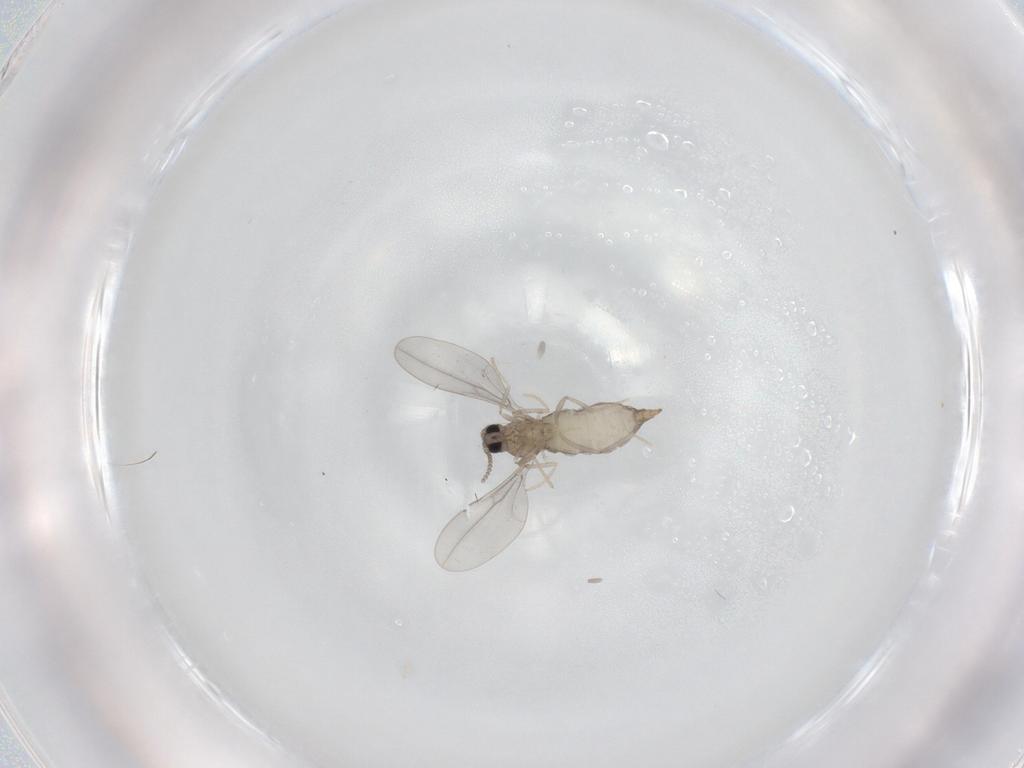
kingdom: Animalia
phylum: Arthropoda
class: Insecta
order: Diptera
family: Cecidomyiidae
